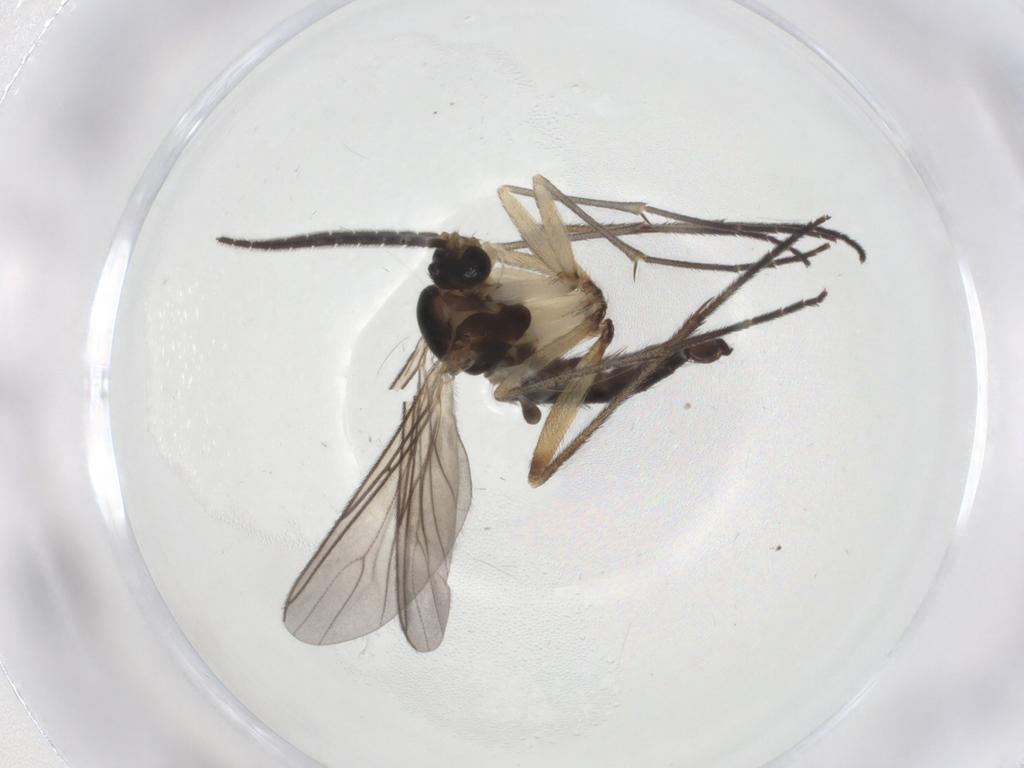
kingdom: Animalia
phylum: Arthropoda
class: Insecta
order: Diptera
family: Sciaridae
